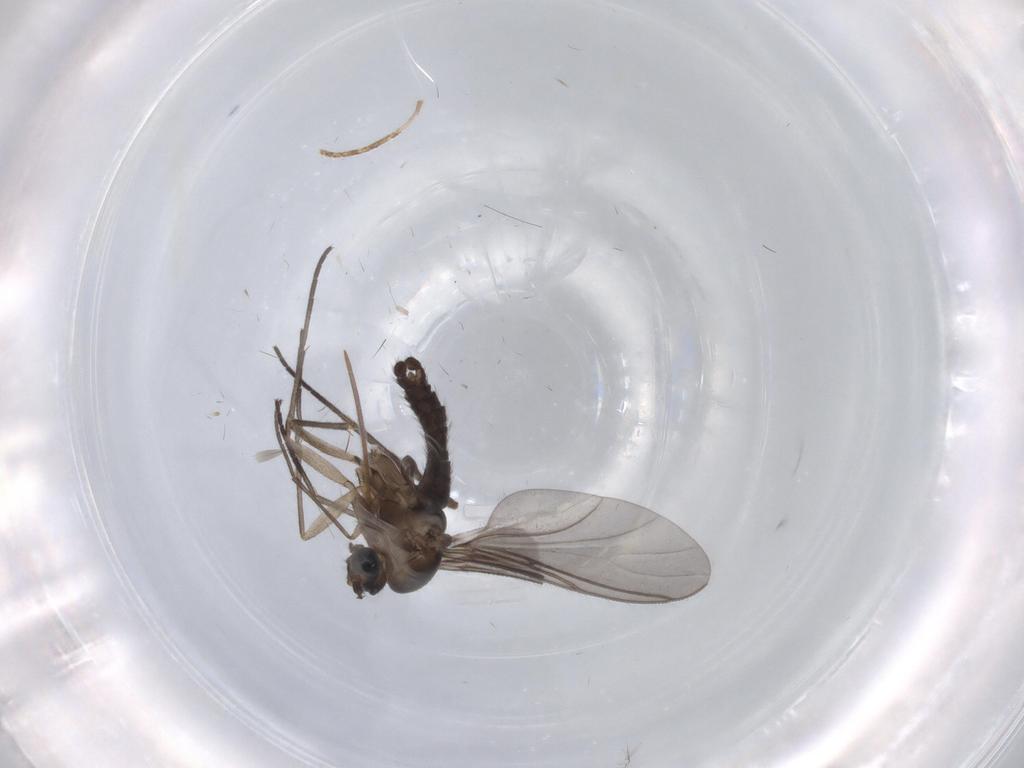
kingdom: Animalia
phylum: Arthropoda
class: Insecta
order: Diptera
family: Sciaridae
